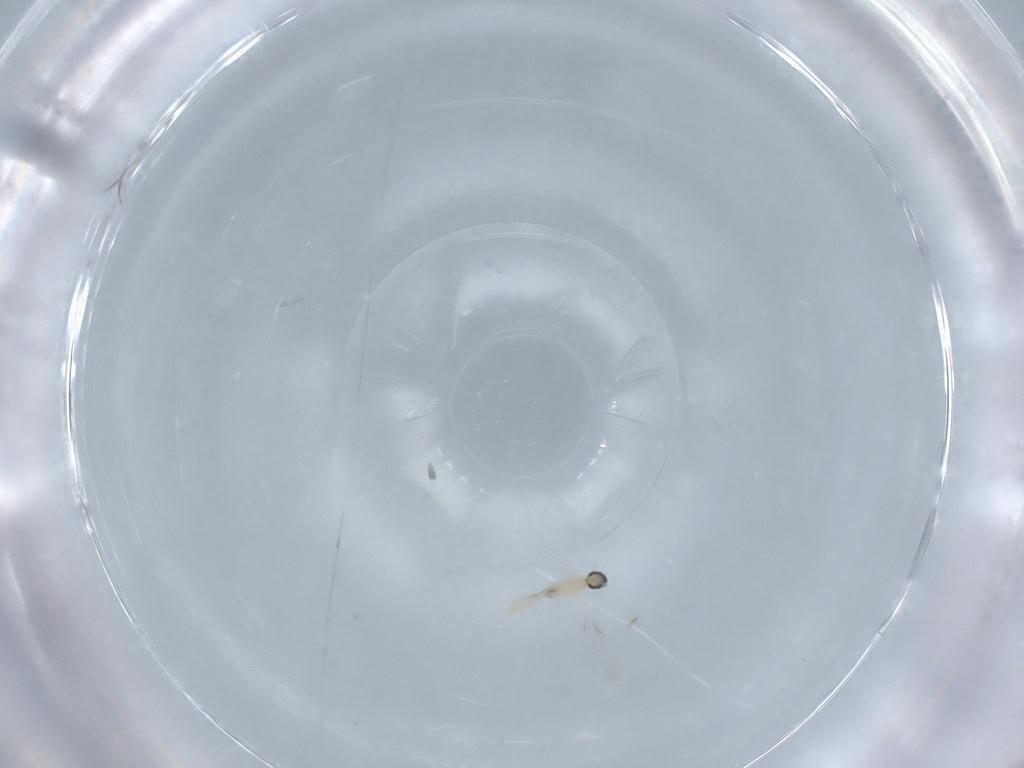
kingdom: Animalia
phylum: Arthropoda
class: Insecta
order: Diptera
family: Cecidomyiidae
